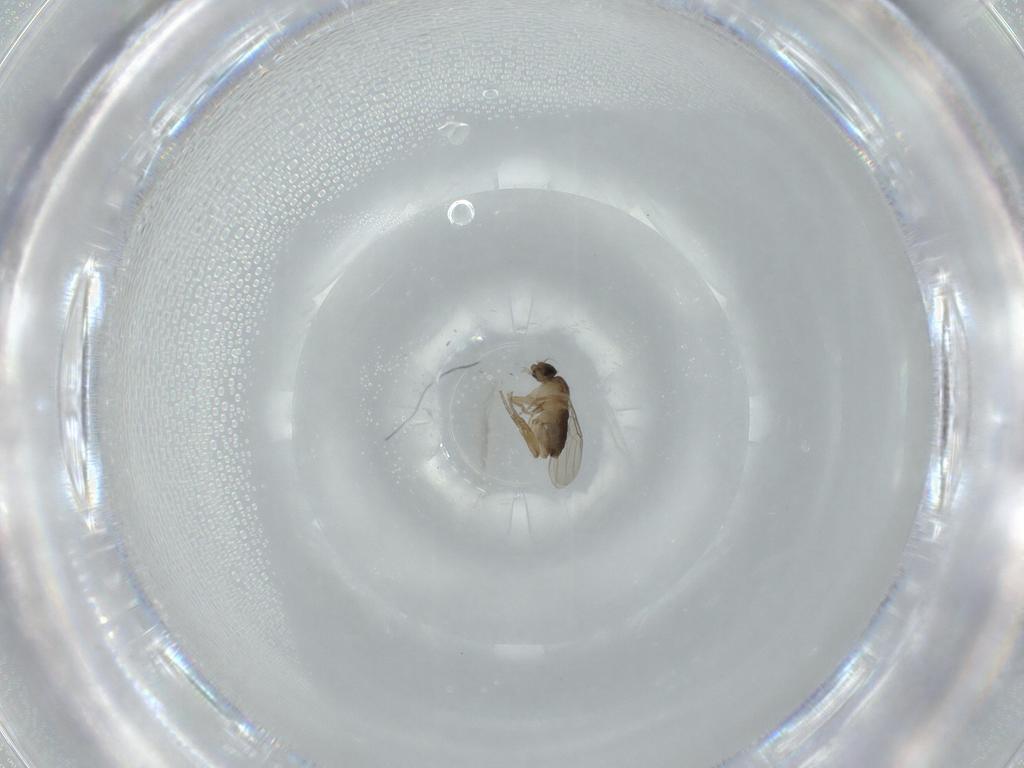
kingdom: Animalia
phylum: Arthropoda
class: Insecta
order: Diptera
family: Phoridae
